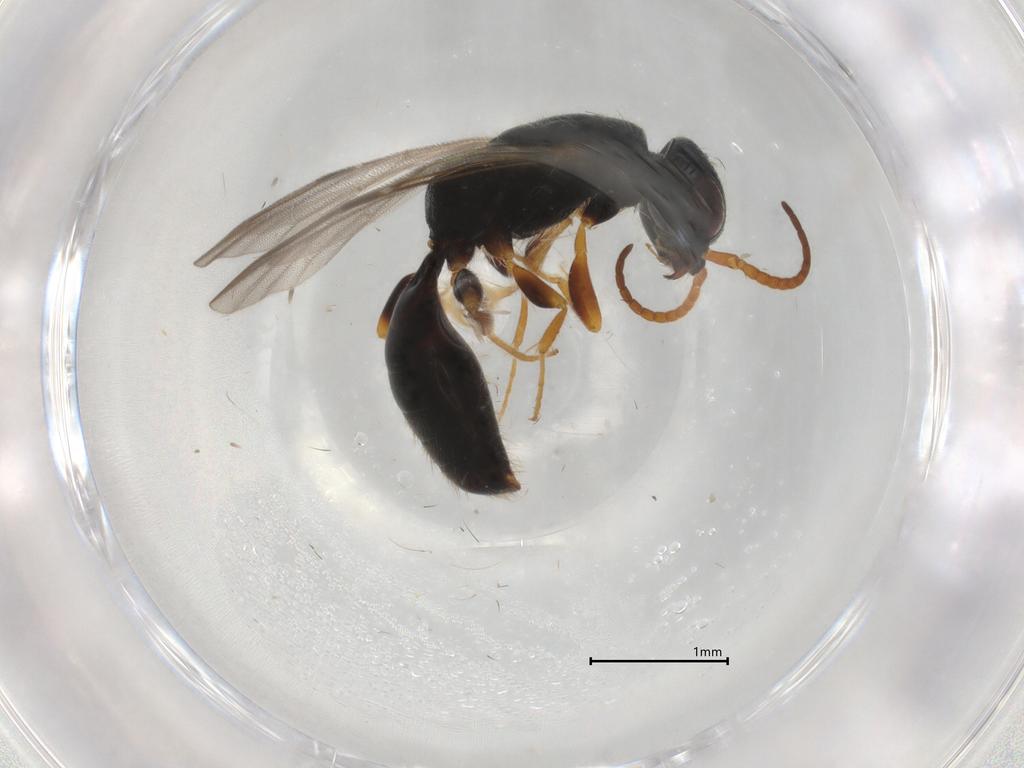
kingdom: Animalia
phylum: Arthropoda
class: Insecta
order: Hymenoptera
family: Bethylidae
